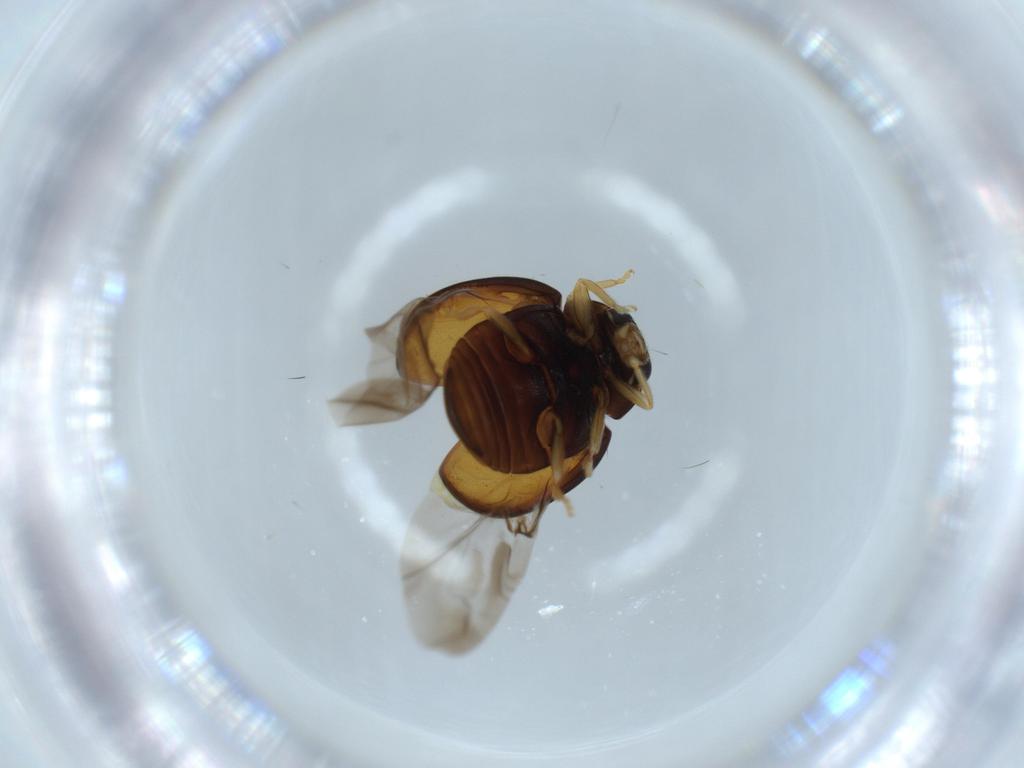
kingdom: Animalia
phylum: Arthropoda
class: Insecta
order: Coleoptera
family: Coccinellidae
